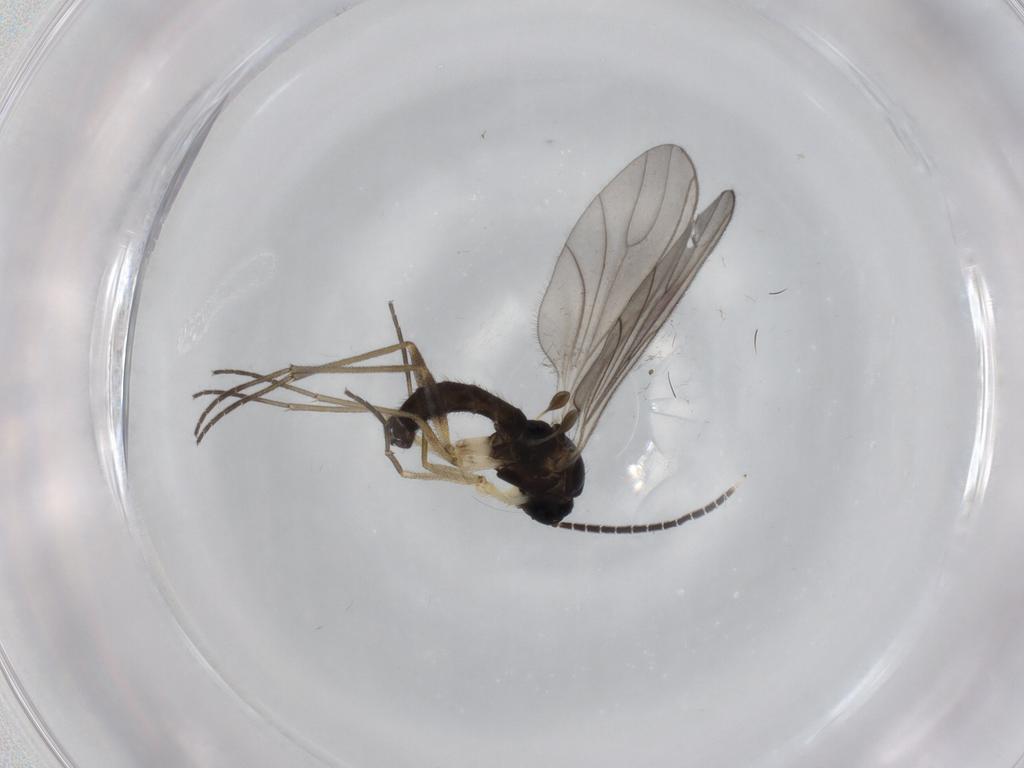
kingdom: Animalia
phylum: Arthropoda
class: Insecta
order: Diptera
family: Sciaridae
